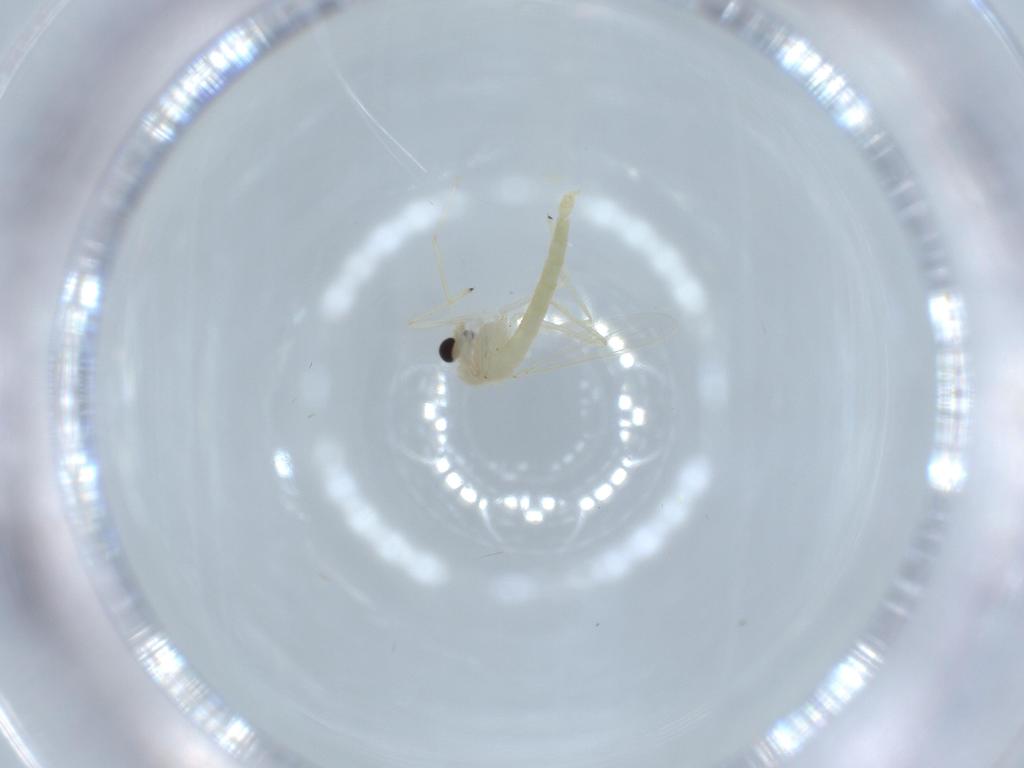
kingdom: Animalia
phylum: Arthropoda
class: Insecta
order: Diptera
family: Chironomidae
